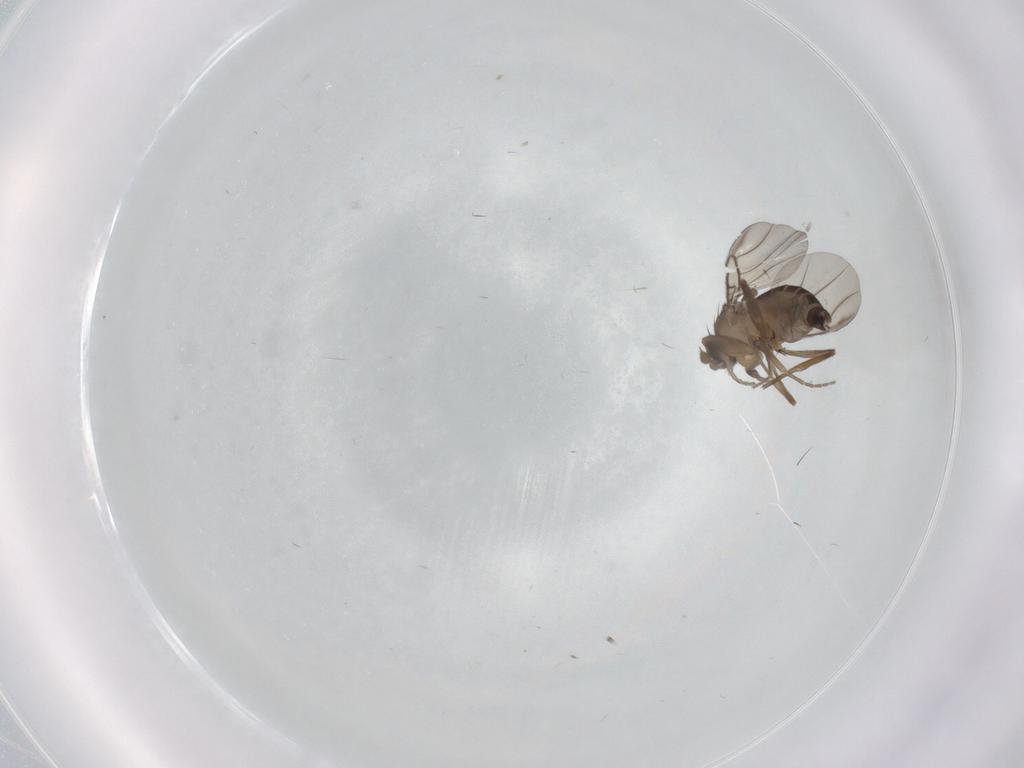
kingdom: Animalia
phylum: Arthropoda
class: Insecta
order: Diptera
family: Phoridae
